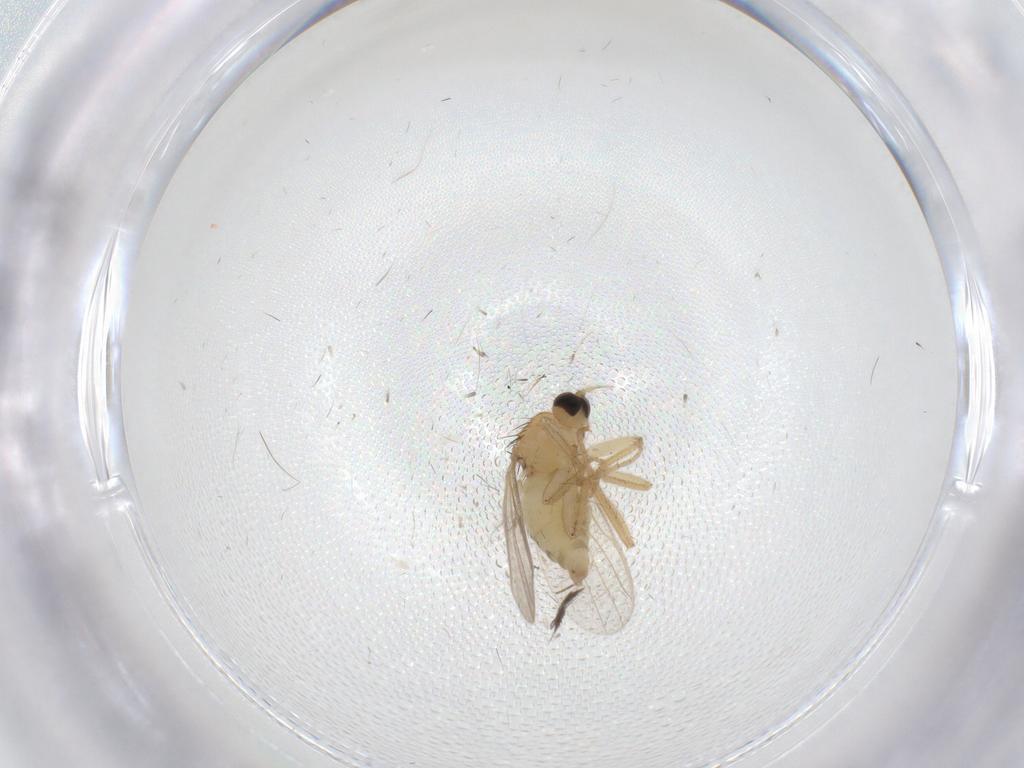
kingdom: Animalia
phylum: Arthropoda
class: Insecta
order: Diptera
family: Hybotidae
